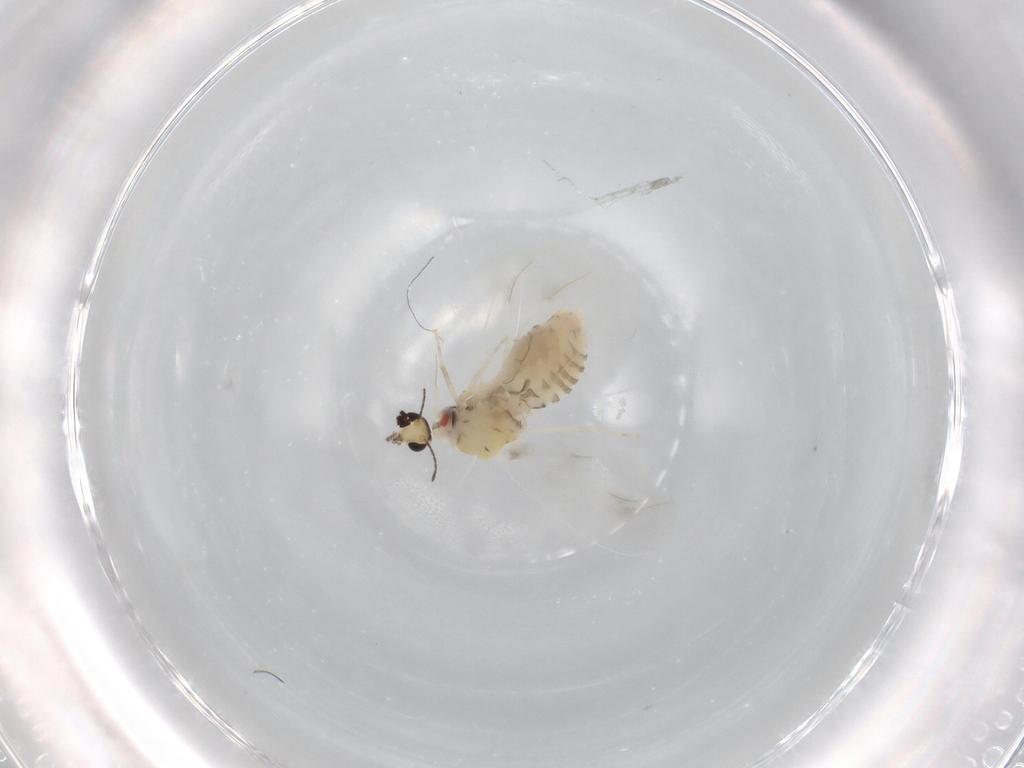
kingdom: Animalia
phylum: Arthropoda
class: Insecta
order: Diptera
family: Chironomidae
